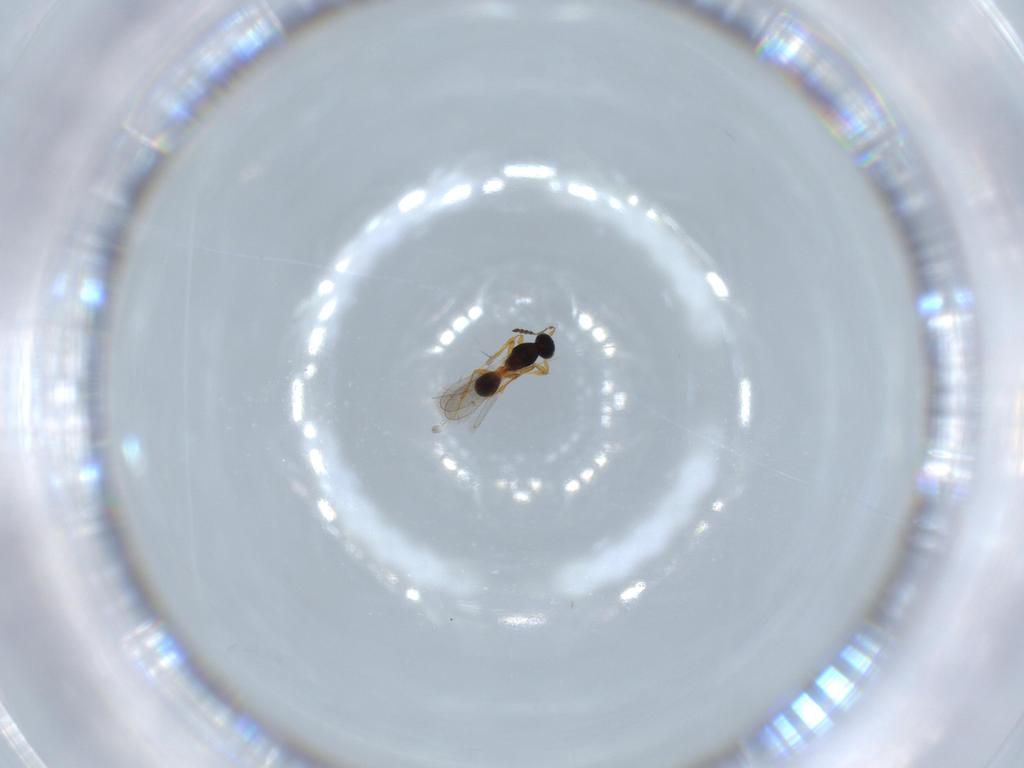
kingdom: Animalia
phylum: Arthropoda
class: Insecta
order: Hymenoptera
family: Platygastridae
